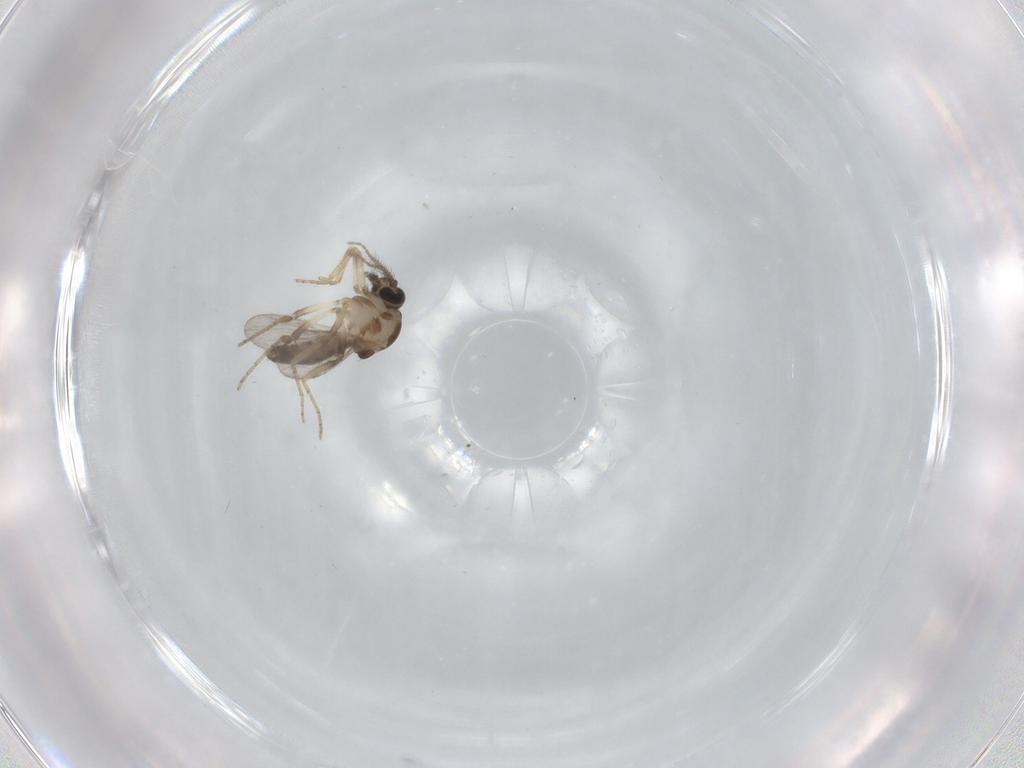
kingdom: Animalia
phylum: Arthropoda
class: Insecta
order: Diptera
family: Ceratopogonidae
